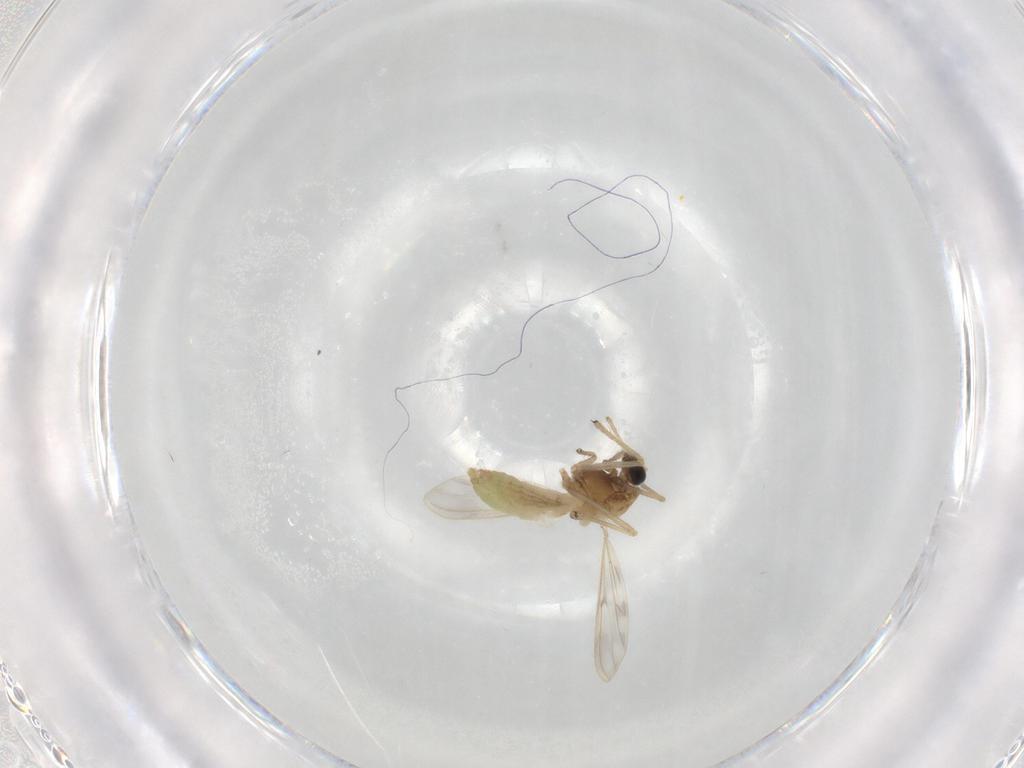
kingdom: Animalia
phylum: Arthropoda
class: Insecta
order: Diptera
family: Chironomidae
